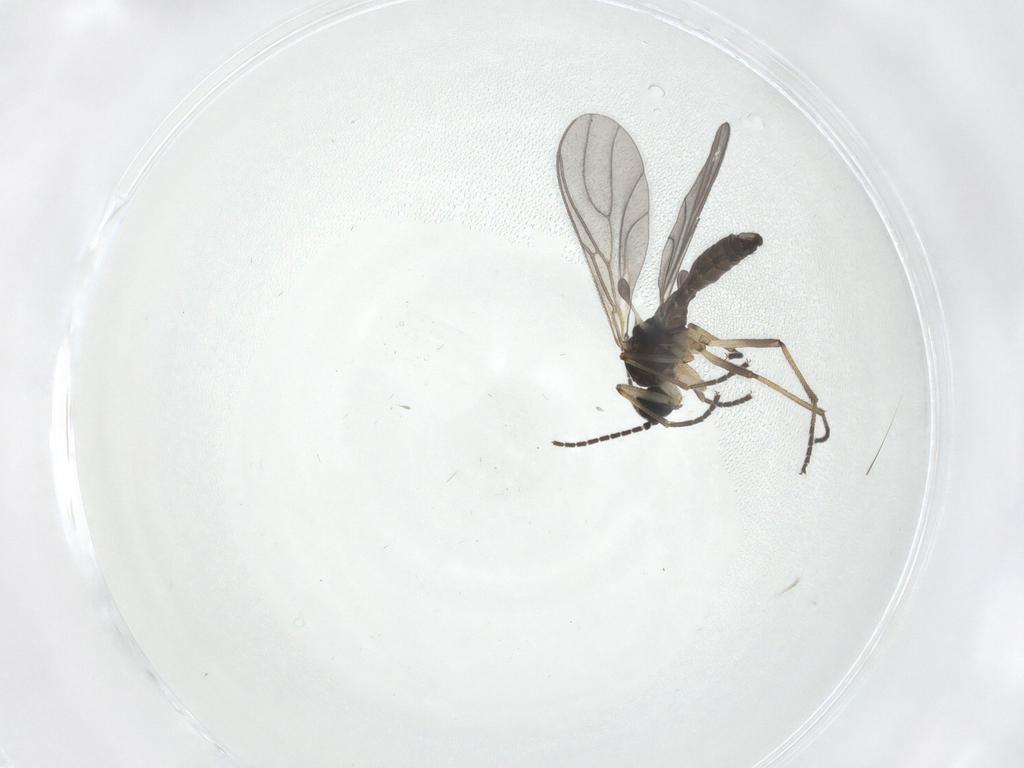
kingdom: Animalia
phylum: Arthropoda
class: Insecta
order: Diptera
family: Sciaridae
